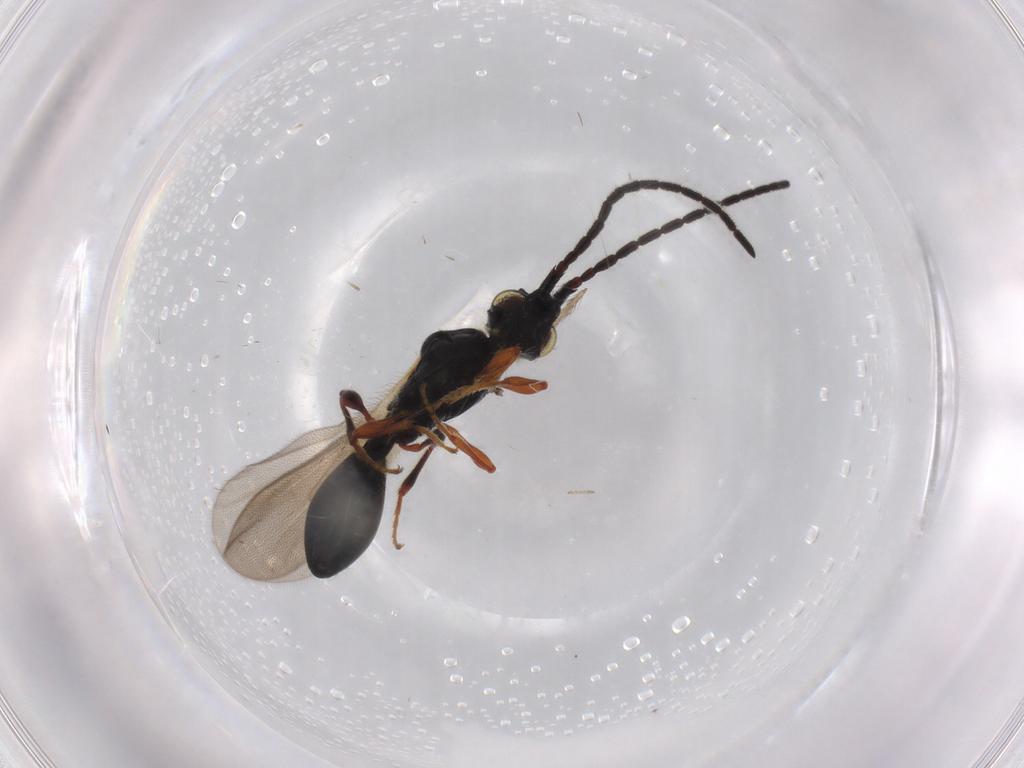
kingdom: Animalia
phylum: Arthropoda
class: Insecta
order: Hymenoptera
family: Diapriidae
